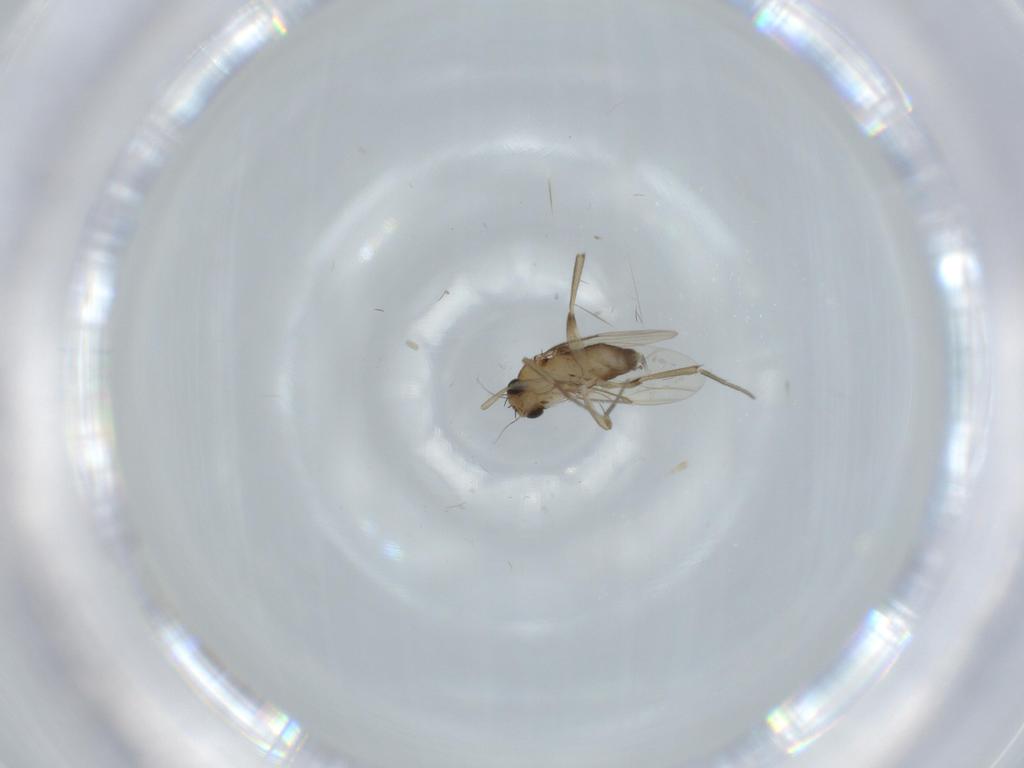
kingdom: Animalia
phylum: Arthropoda
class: Insecta
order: Diptera
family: Phoridae
